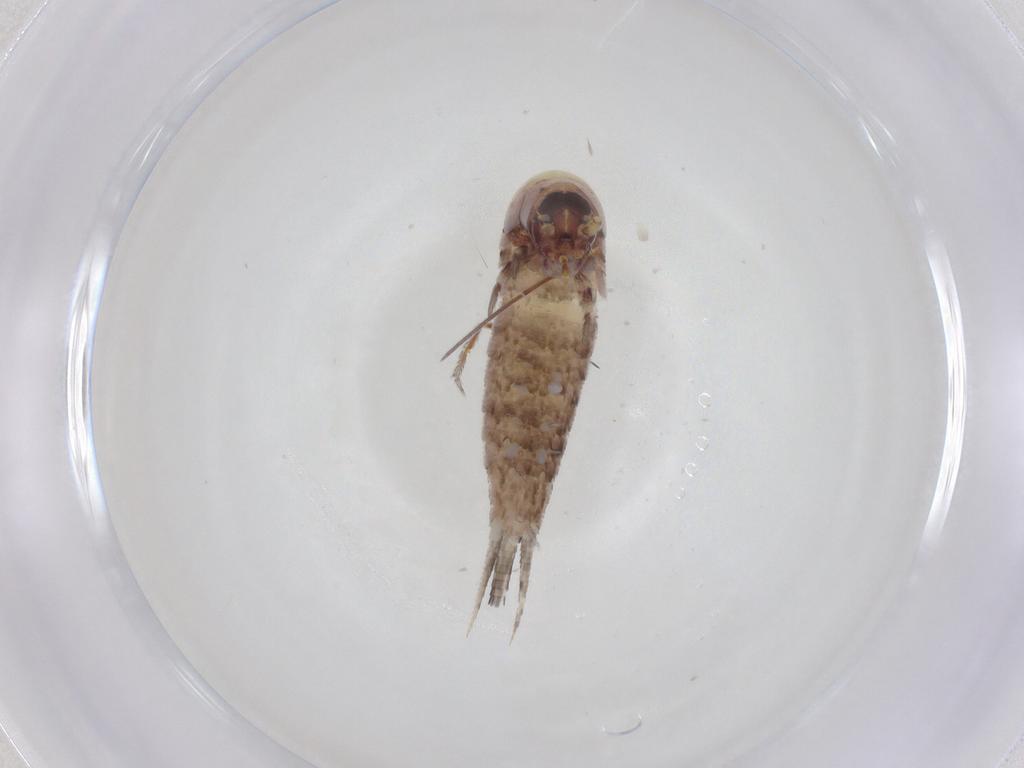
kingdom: Animalia
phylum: Arthropoda
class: Insecta
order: Archaeognatha
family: Meinertellidae
